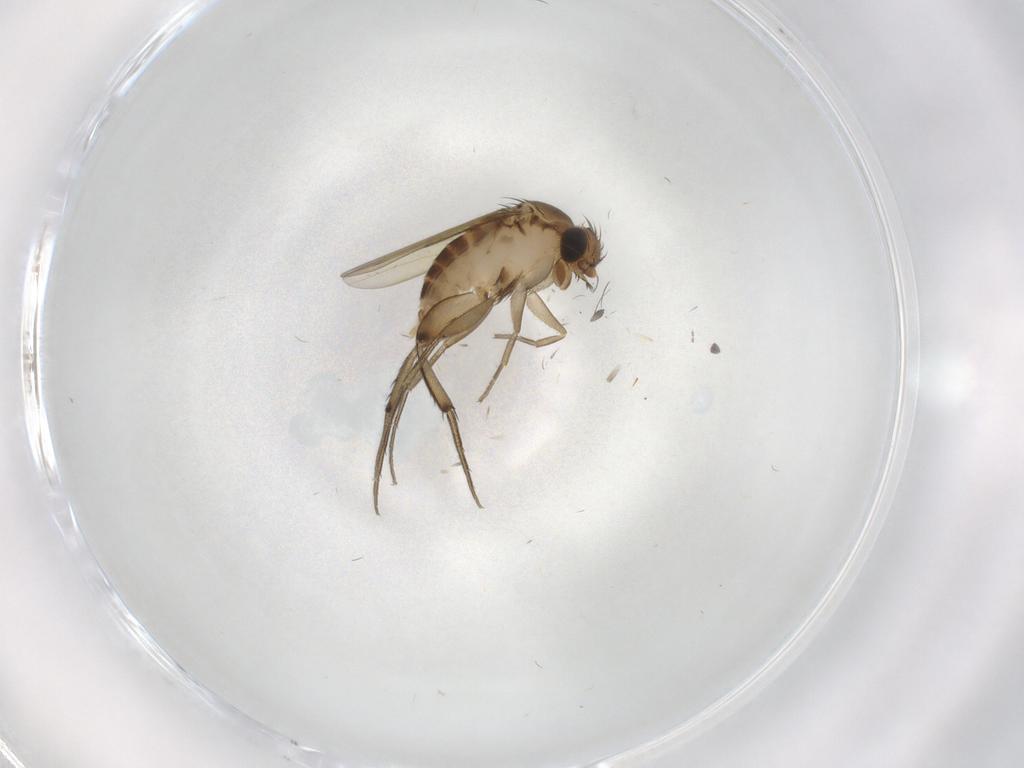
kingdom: Animalia
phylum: Arthropoda
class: Insecta
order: Diptera
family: Phoridae
